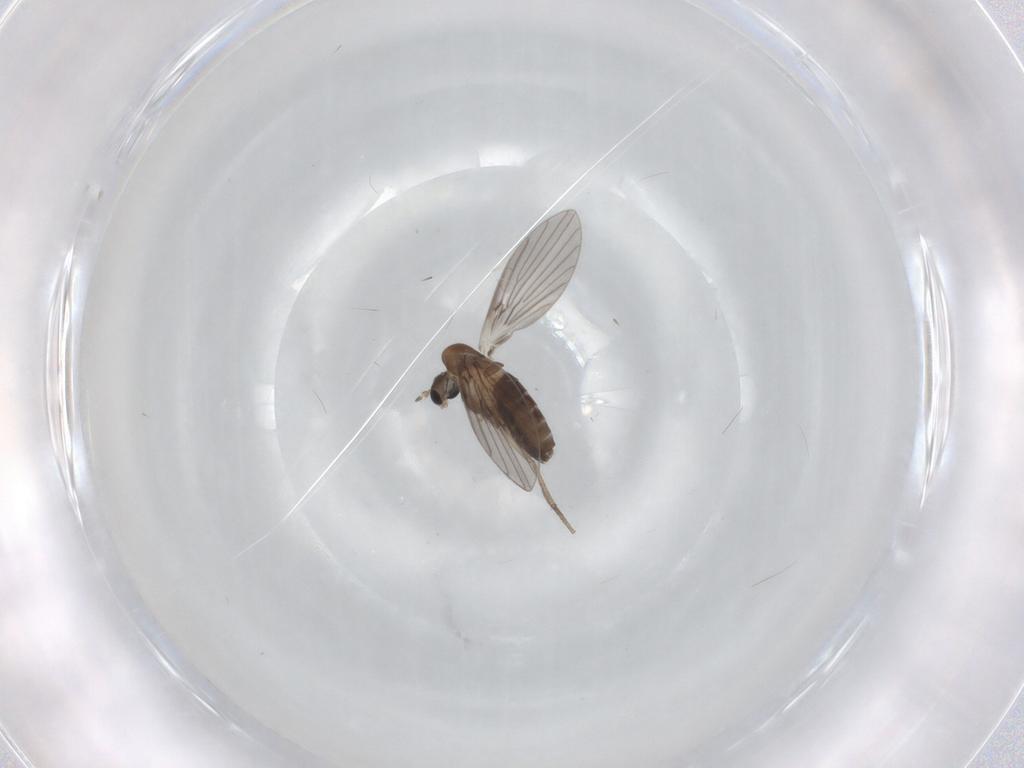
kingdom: Animalia
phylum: Arthropoda
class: Insecta
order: Diptera
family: Psychodidae
